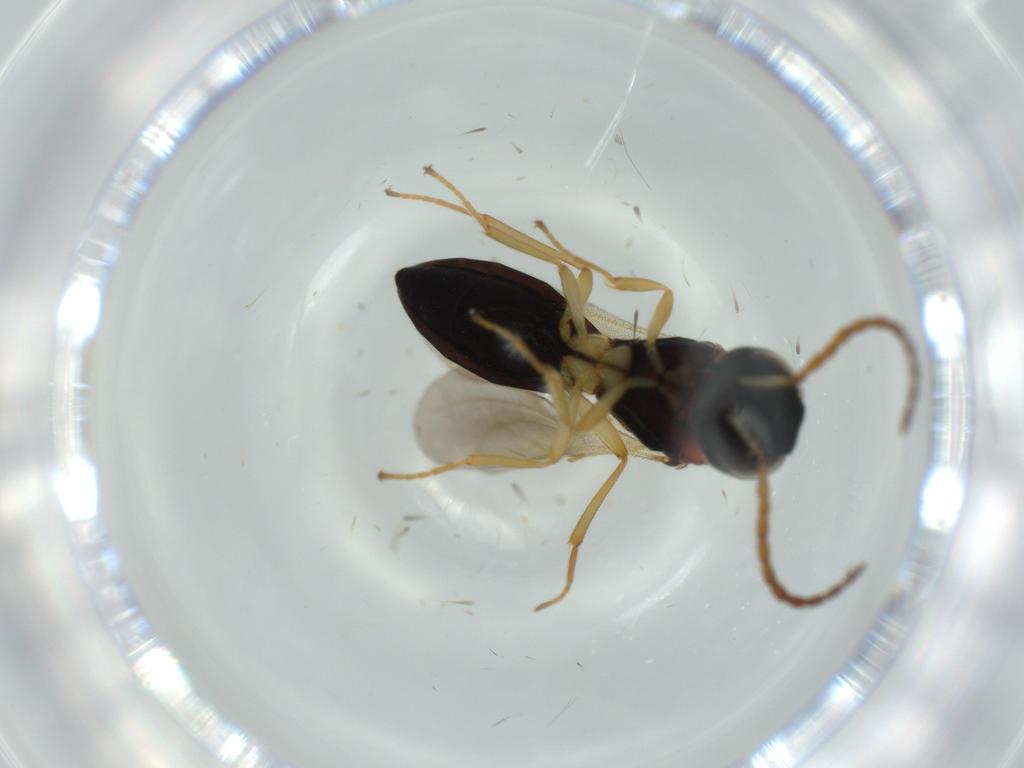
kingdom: Animalia
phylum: Arthropoda
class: Insecta
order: Hymenoptera
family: Formicidae
